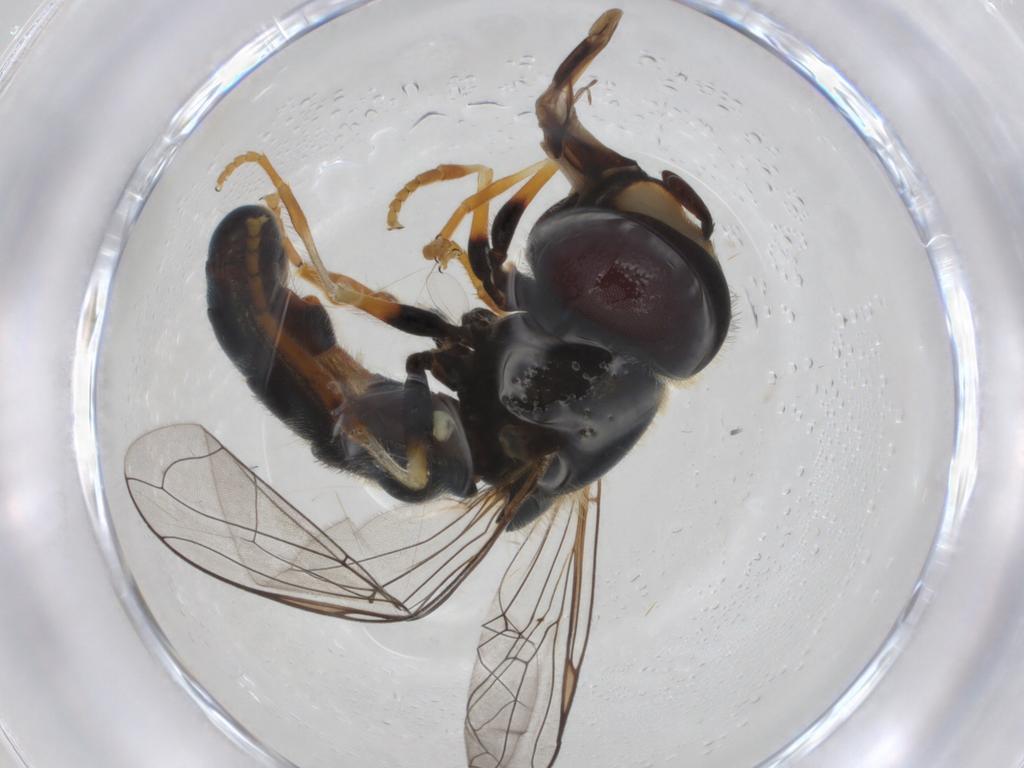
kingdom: Animalia
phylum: Arthropoda
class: Insecta
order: Diptera
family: Syrphidae
